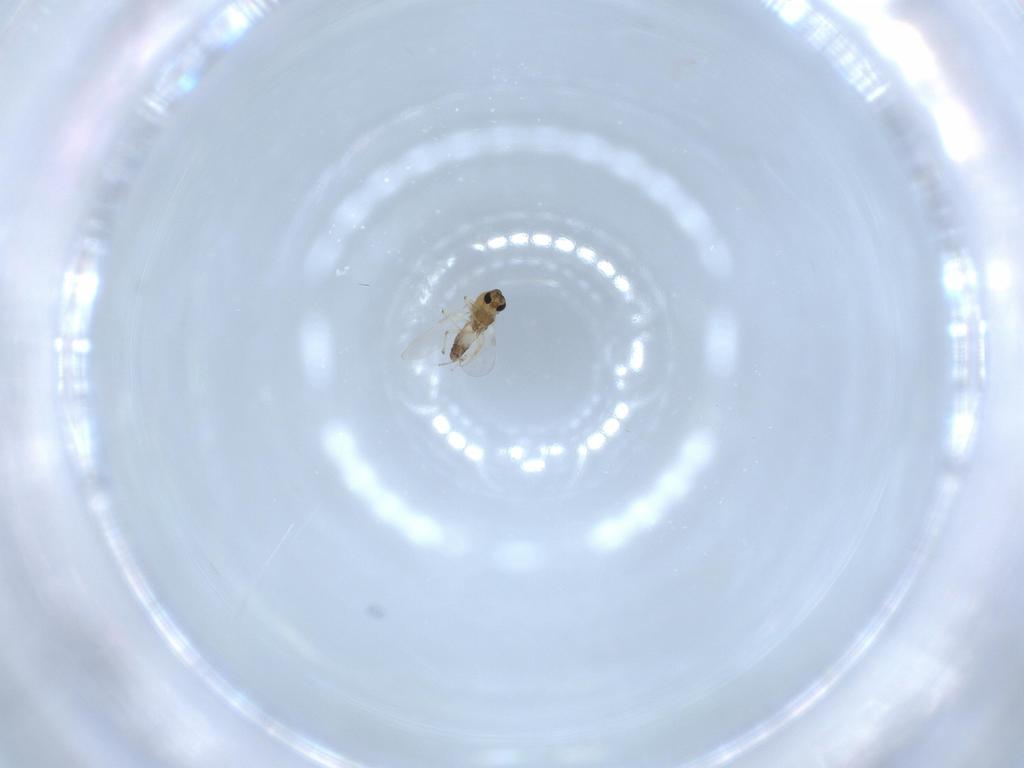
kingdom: Animalia
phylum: Arthropoda
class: Insecta
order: Diptera
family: Chironomidae
